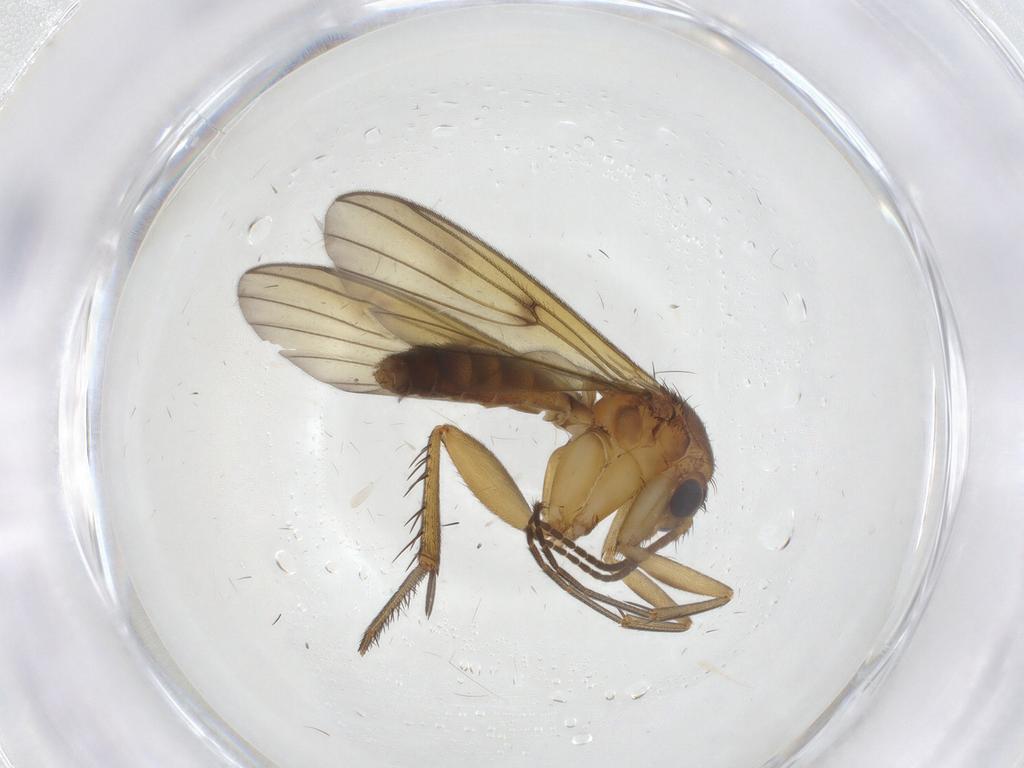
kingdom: Animalia
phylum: Arthropoda
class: Insecta
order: Diptera
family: Mycetophilidae
